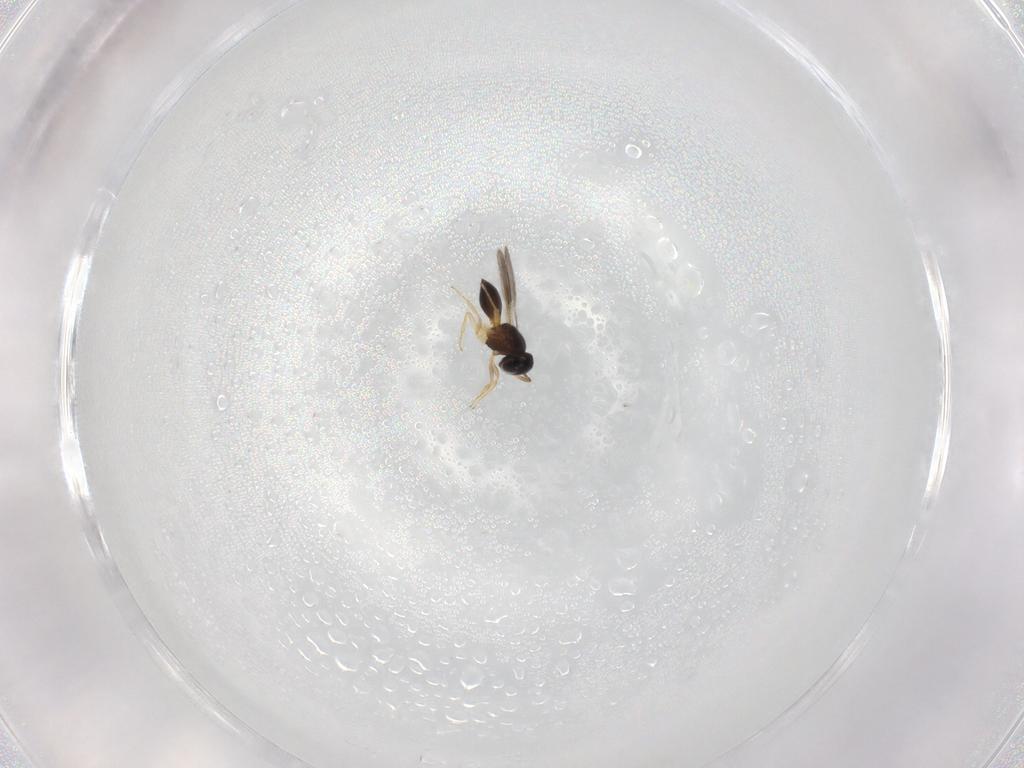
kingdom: Animalia
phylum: Arthropoda
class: Insecta
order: Hymenoptera
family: Scelionidae
